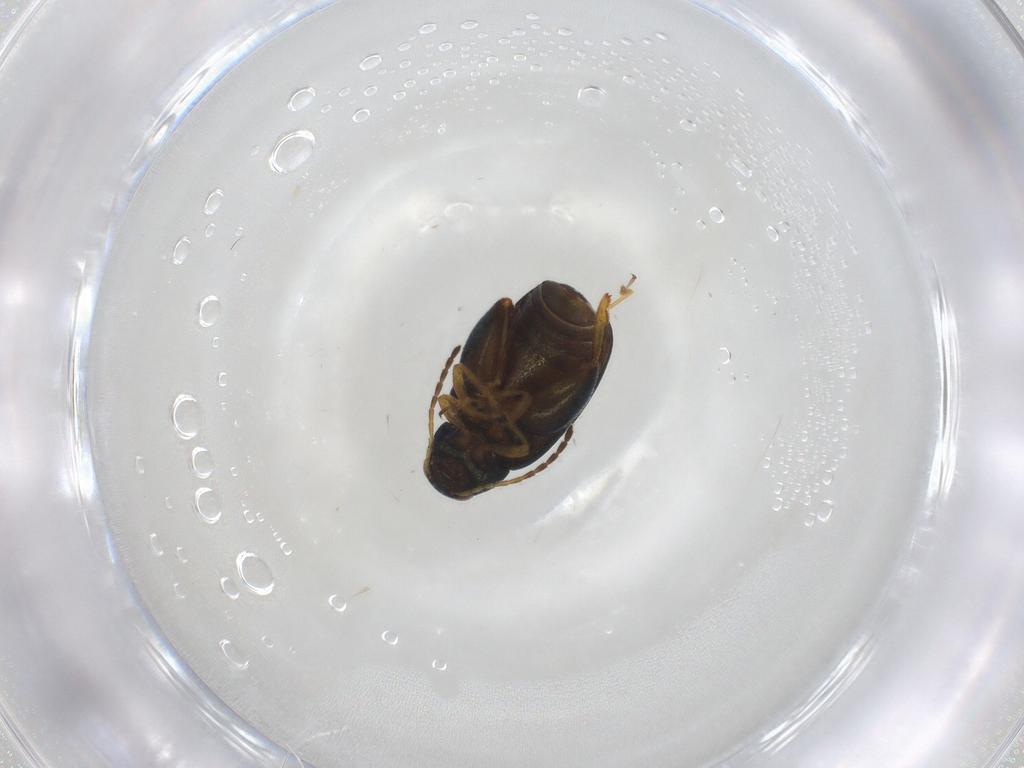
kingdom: Animalia
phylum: Arthropoda
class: Insecta
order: Coleoptera
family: Chrysomelidae
